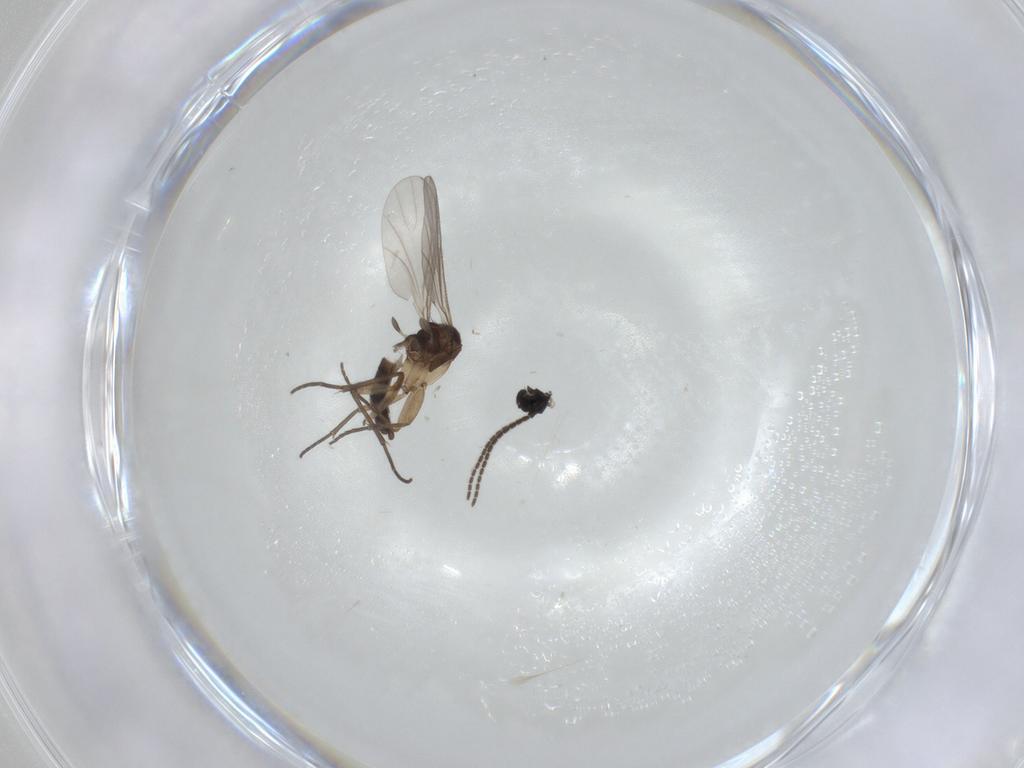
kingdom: Animalia
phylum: Arthropoda
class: Insecta
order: Diptera
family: Sciaridae
